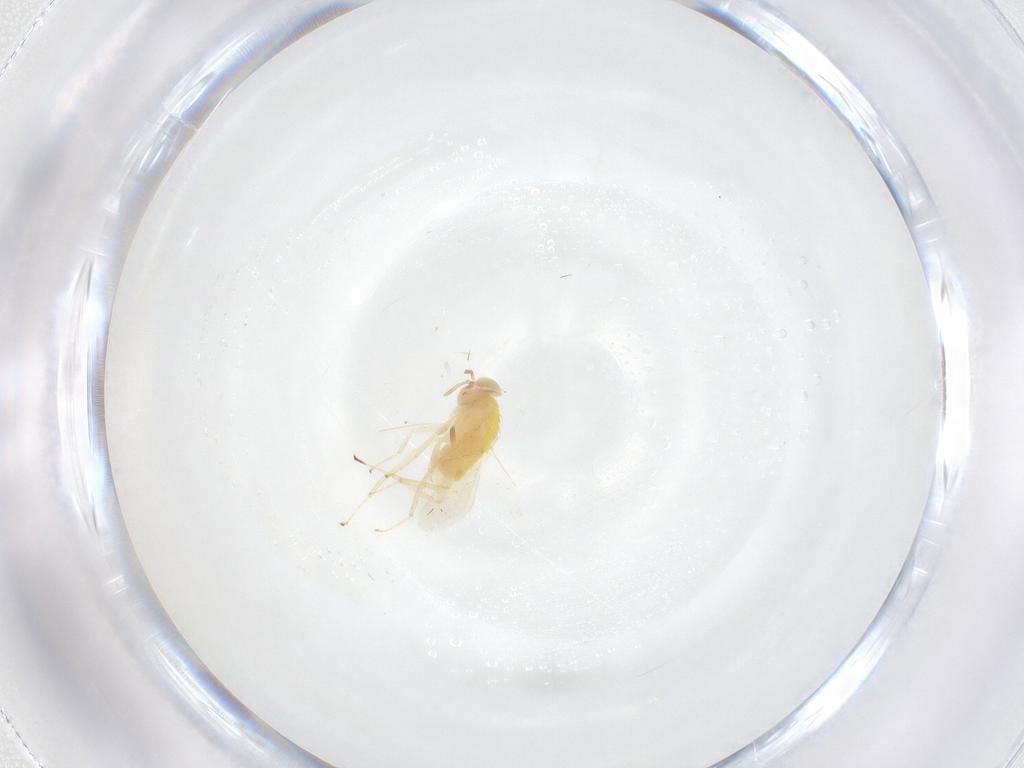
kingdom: Animalia
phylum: Arthropoda
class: Insecta
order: Hymenoptera
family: Aphelinidae
